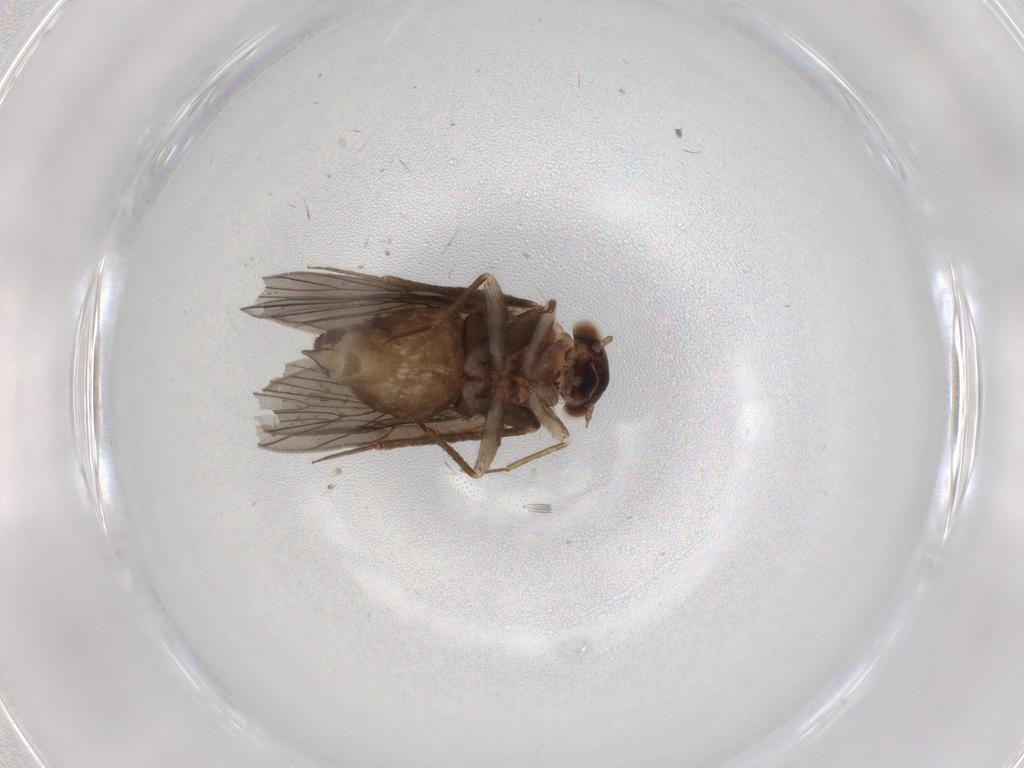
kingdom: Animalia
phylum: Arthropoda
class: Insecta
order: Psocodea
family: Lepidopsocidae
